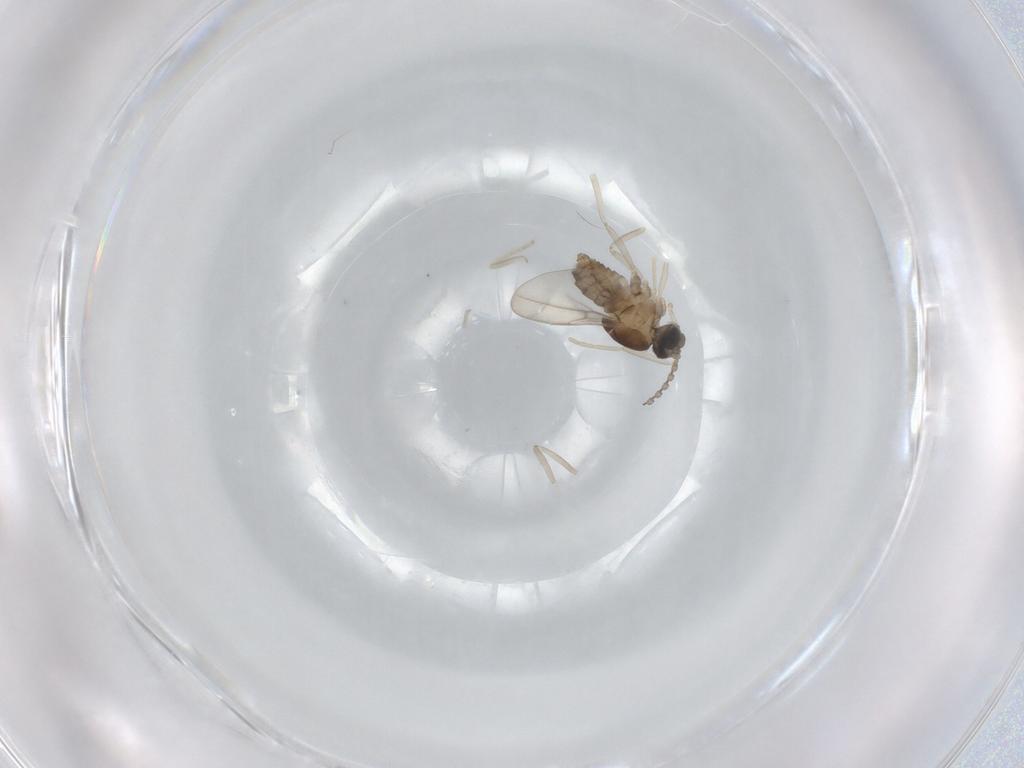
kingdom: Animalia
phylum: Arthropoda
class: Insecta
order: Diptera
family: Cecidomyiidae
